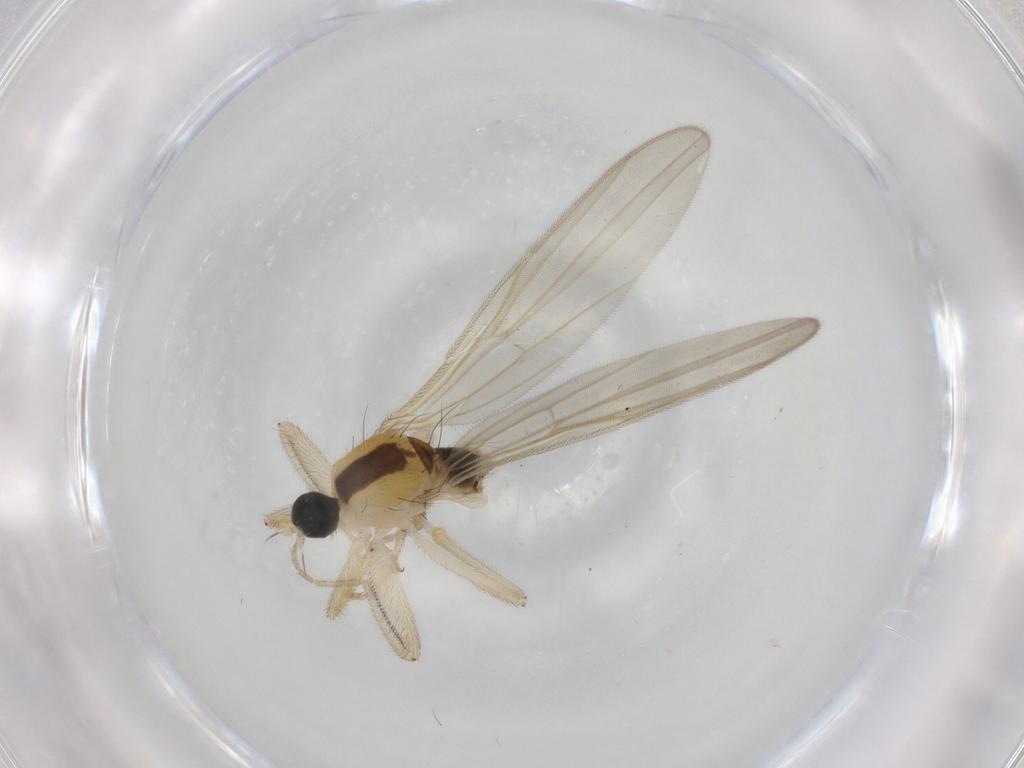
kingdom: Animalia
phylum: Arthropoda
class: Insecta
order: Diptera
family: Hybotidae
